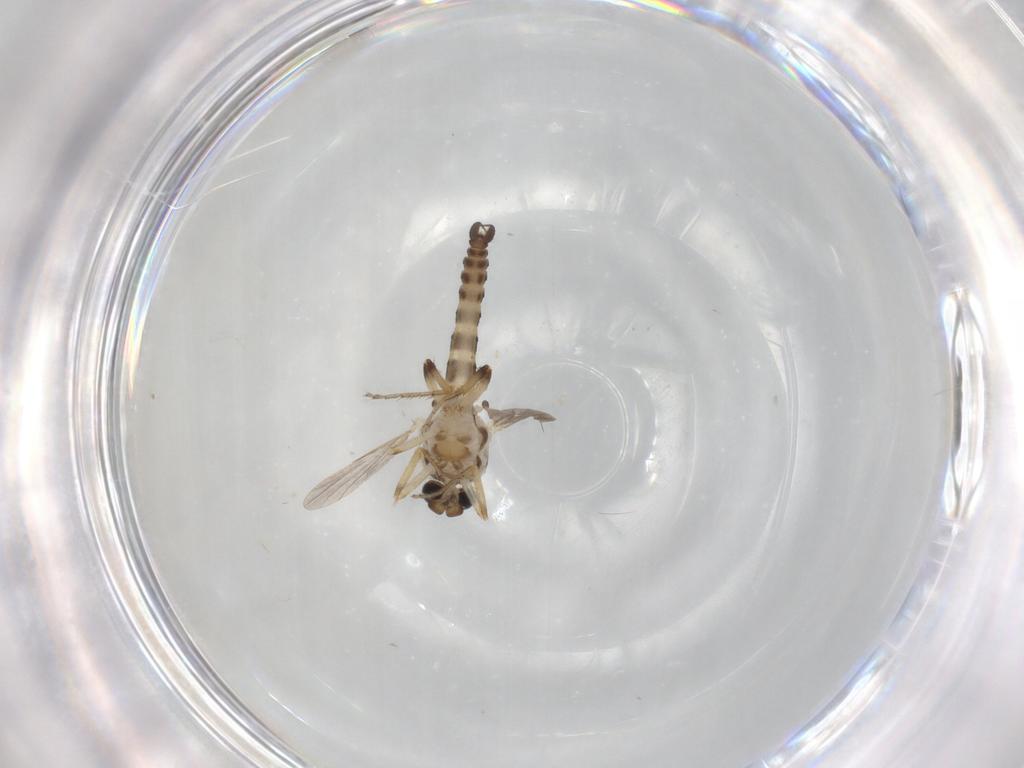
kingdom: Animalia
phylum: Arthropoda
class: Insecta
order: Diptera
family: Ceratopogonidae
